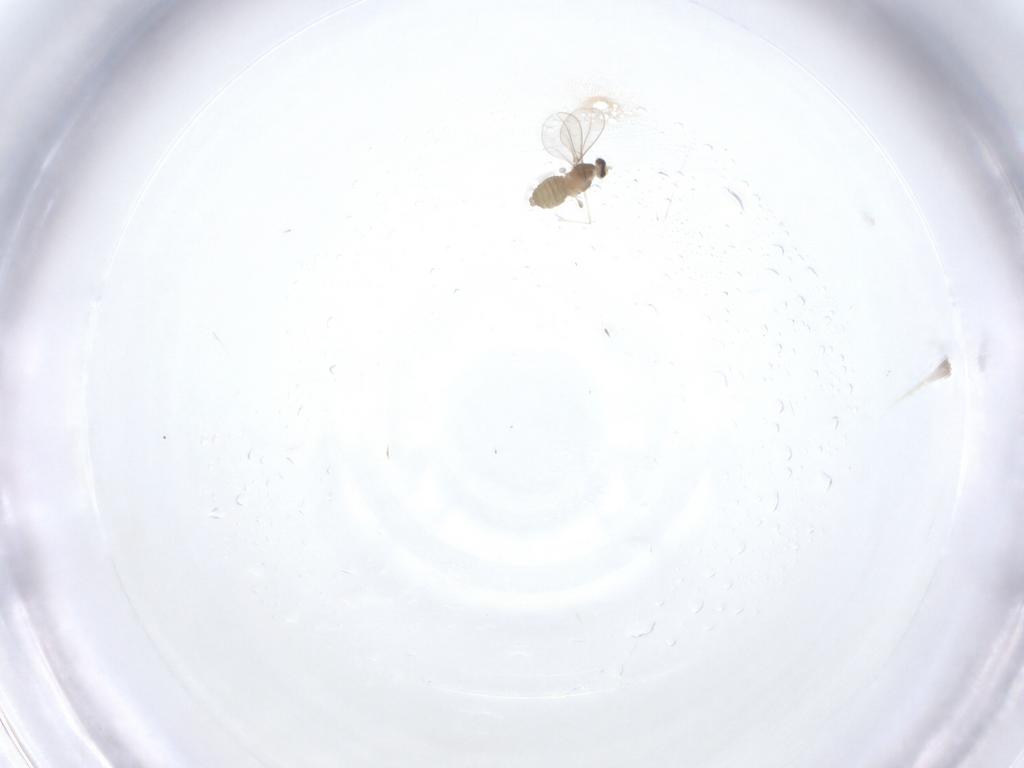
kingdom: Animalia
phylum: Arthropoda
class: Insecta
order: Diptera
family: Cecidomyiidae
